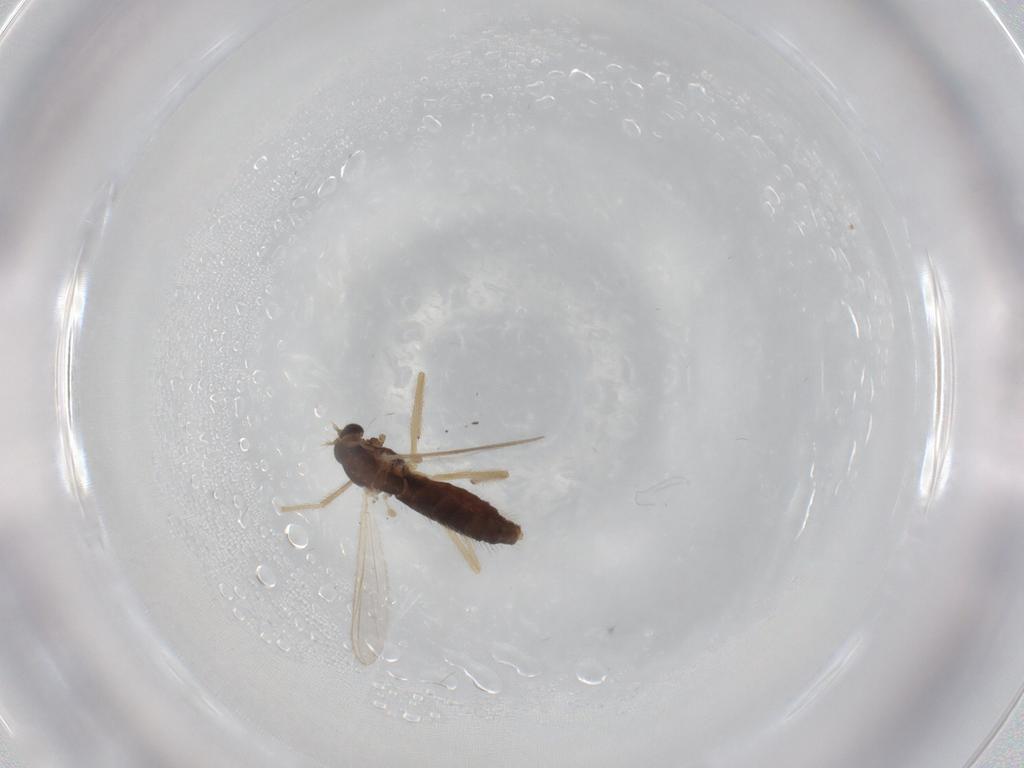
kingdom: Animalia
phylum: Arthropoda
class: Insecta
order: Diptera
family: Chironomidae
